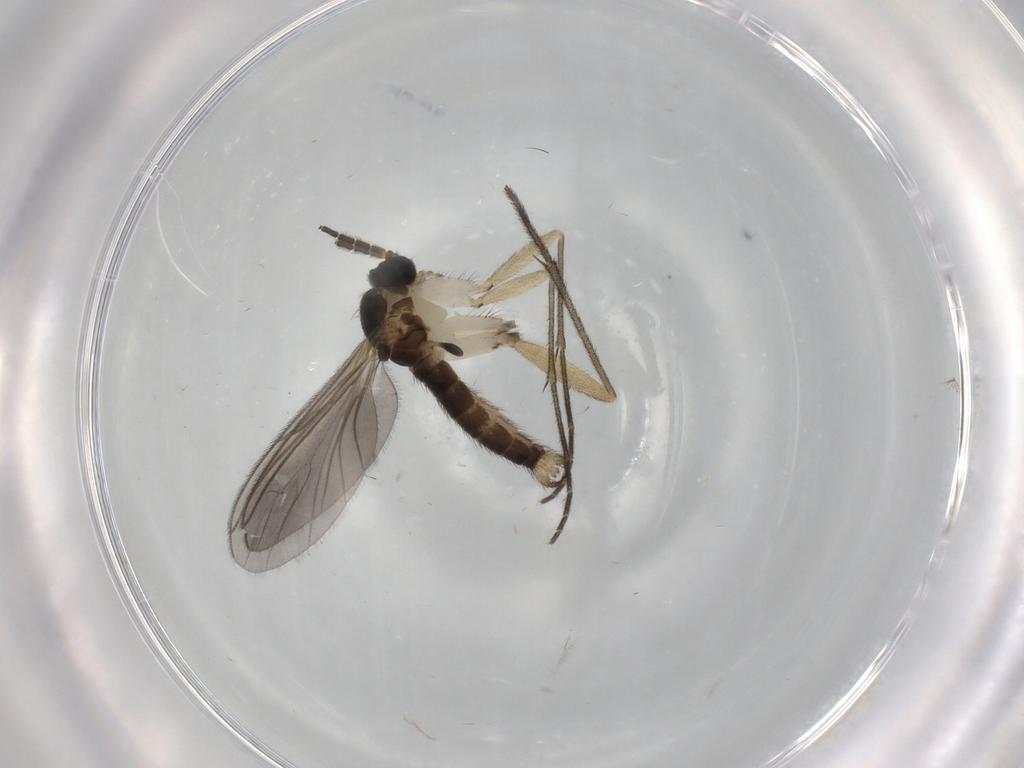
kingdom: Animalia
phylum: Arthropoda
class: Insecta
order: Diptera
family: Sciaridae
